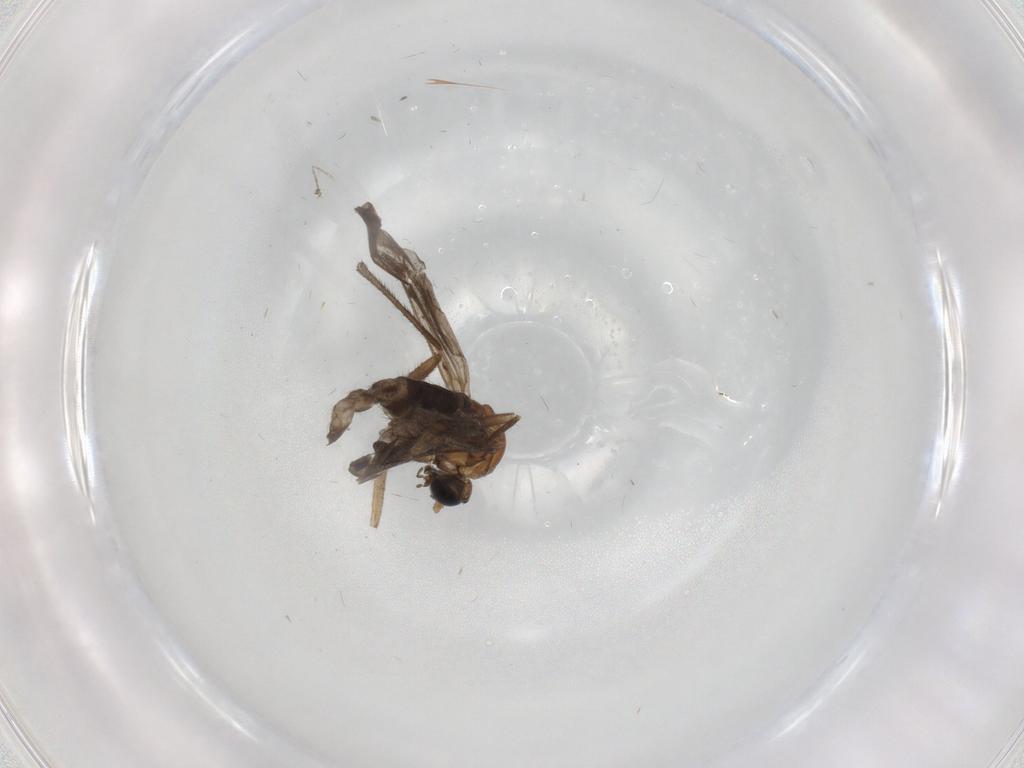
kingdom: Animalia
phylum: Arthropoda
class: Insecta
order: Diptera
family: Culicidae
